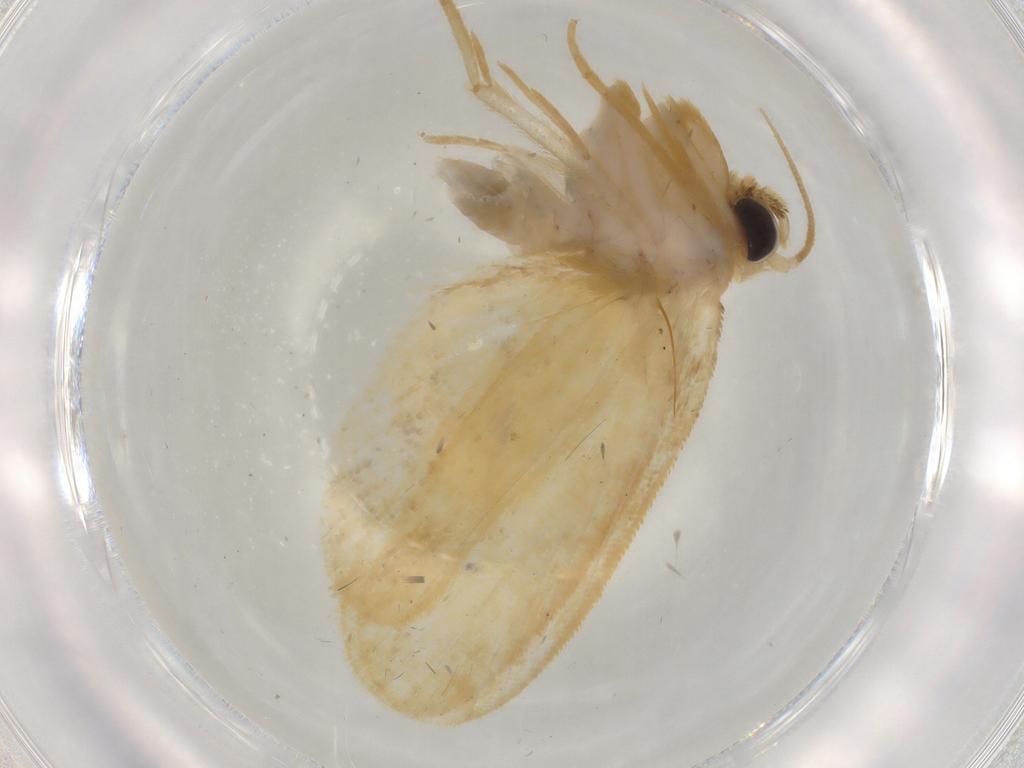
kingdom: Animalia
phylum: Arthropoda
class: Insecta
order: Lepidoptera
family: Psychidae
